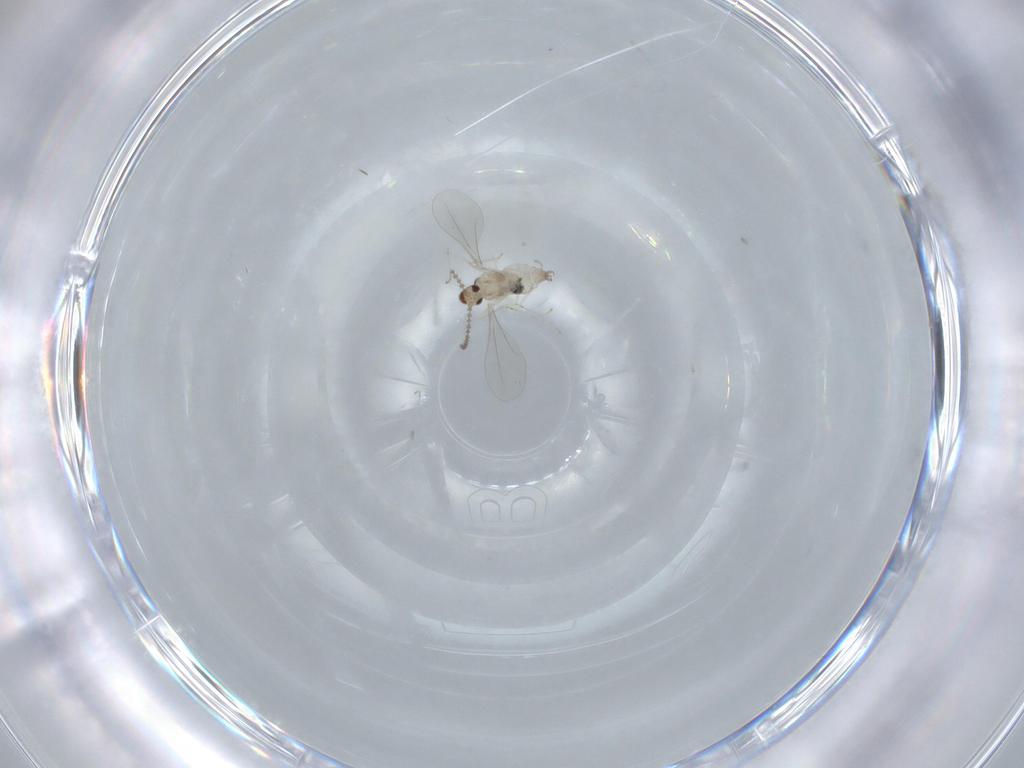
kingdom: Animalia
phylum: Arthropoda
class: Insecta
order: Diptera
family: Cecidomyiidae
